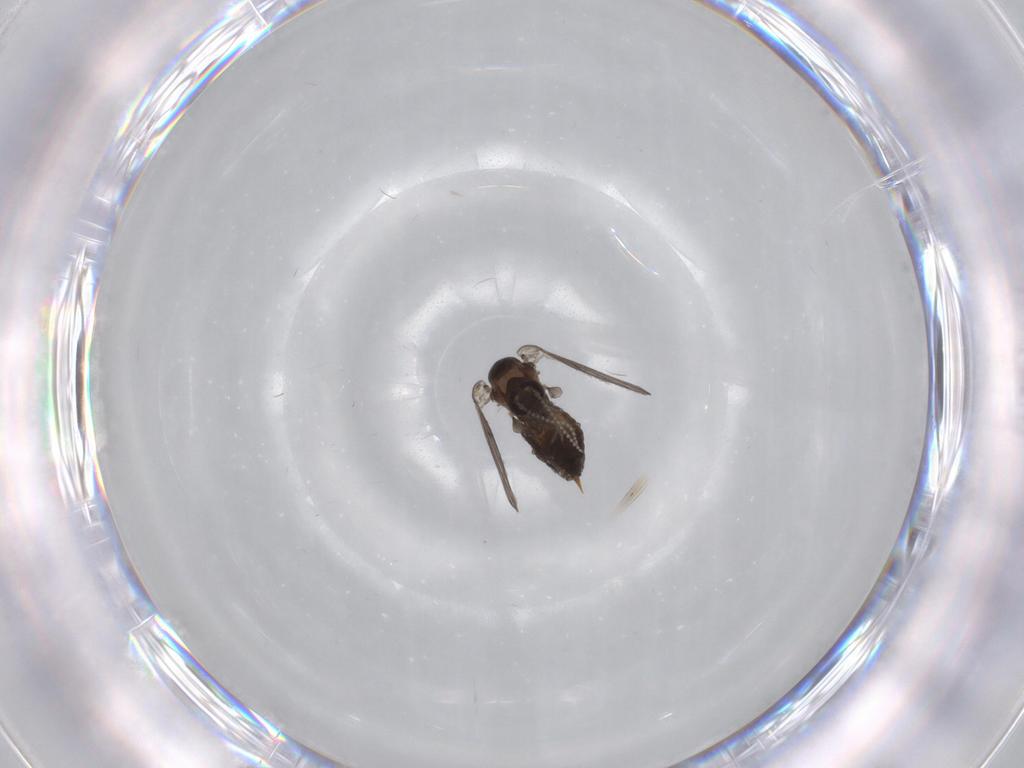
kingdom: Animalia
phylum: Arthropoda
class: Insecta
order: Diptera
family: Psychodidae
